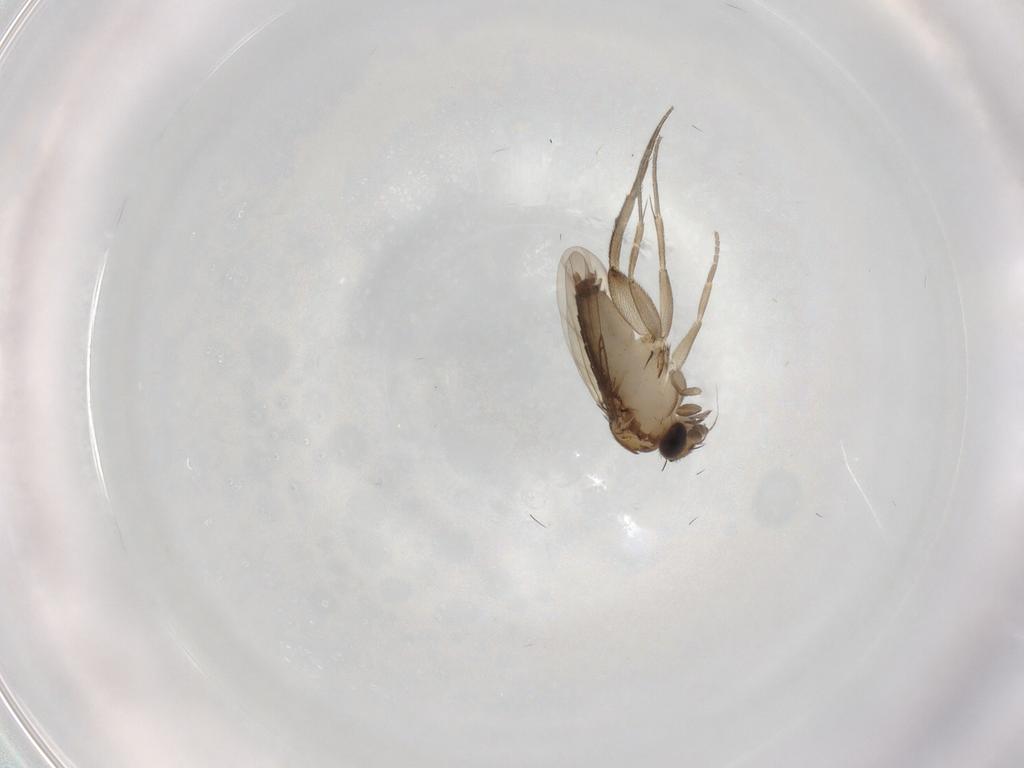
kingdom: Animalia
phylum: Arthropoda
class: Insecta
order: Diptera
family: Phoridae
